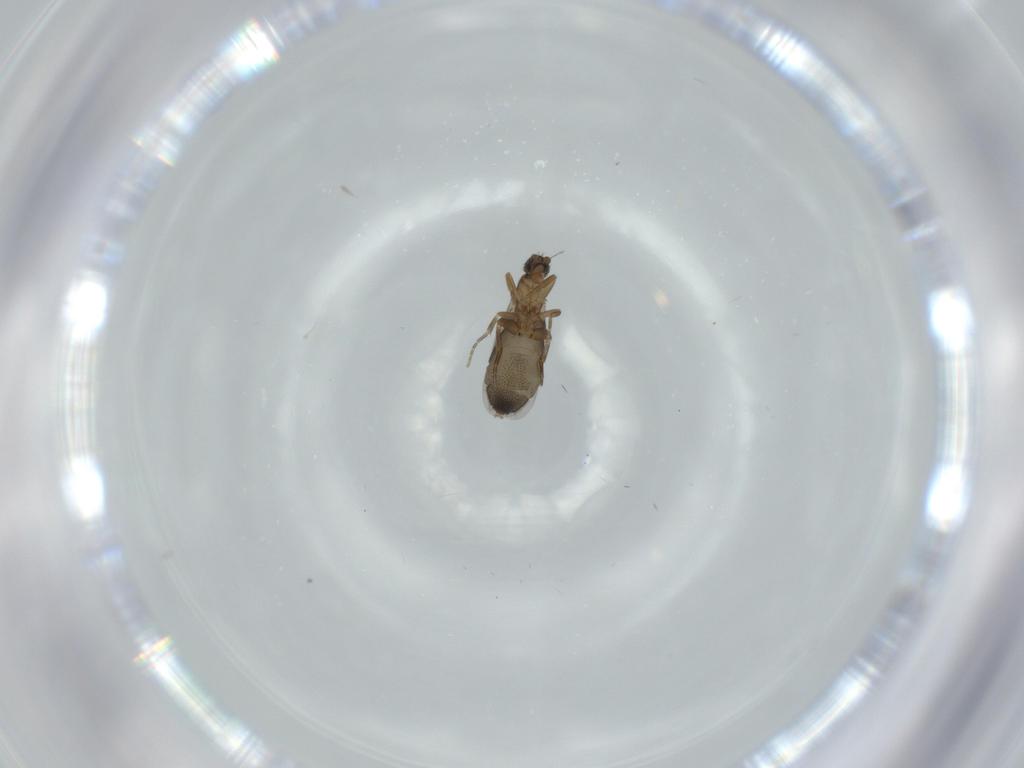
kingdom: Animalia
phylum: Arthropoda
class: Insecta
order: Diptera
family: Phoridae
